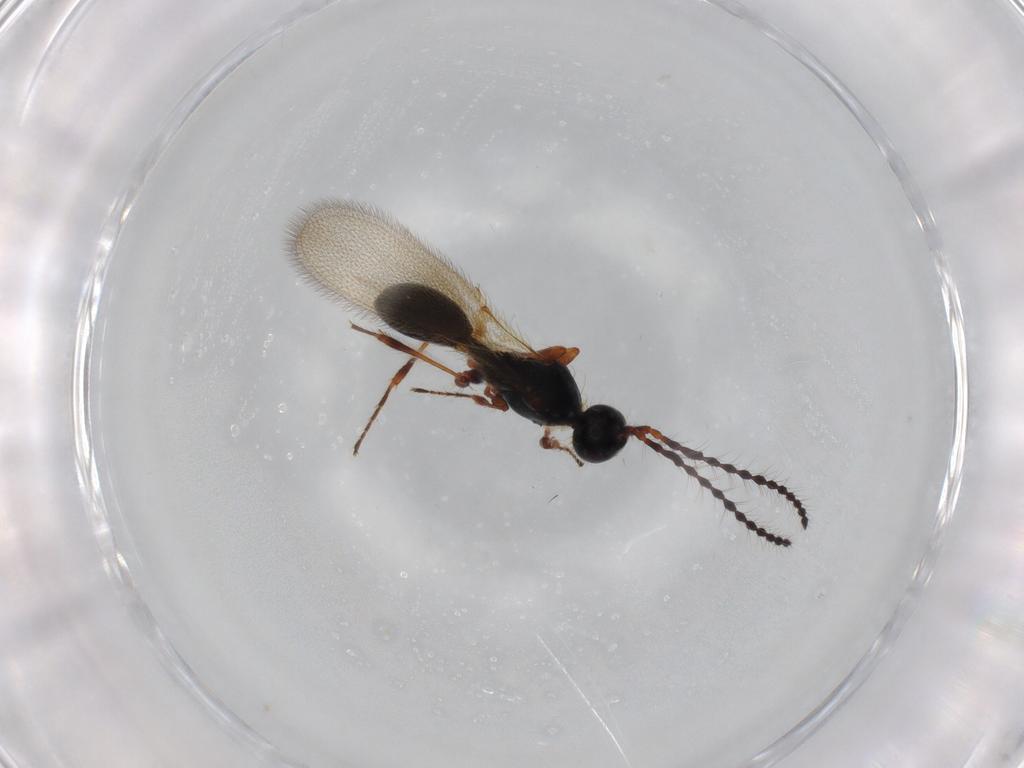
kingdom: Animalia
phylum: Arthropoda
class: Insecta
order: Hymenoptera
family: Diapriidae
